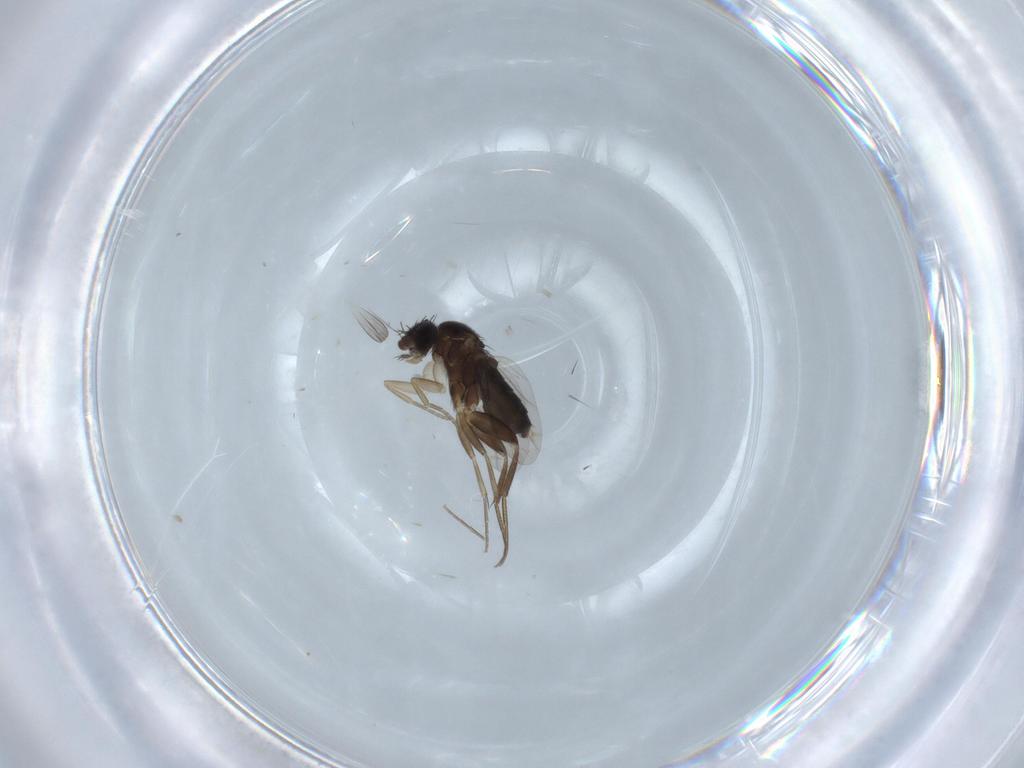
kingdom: Animalia
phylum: Arthropoda
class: Insecta
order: Diptera
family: Phoridae
